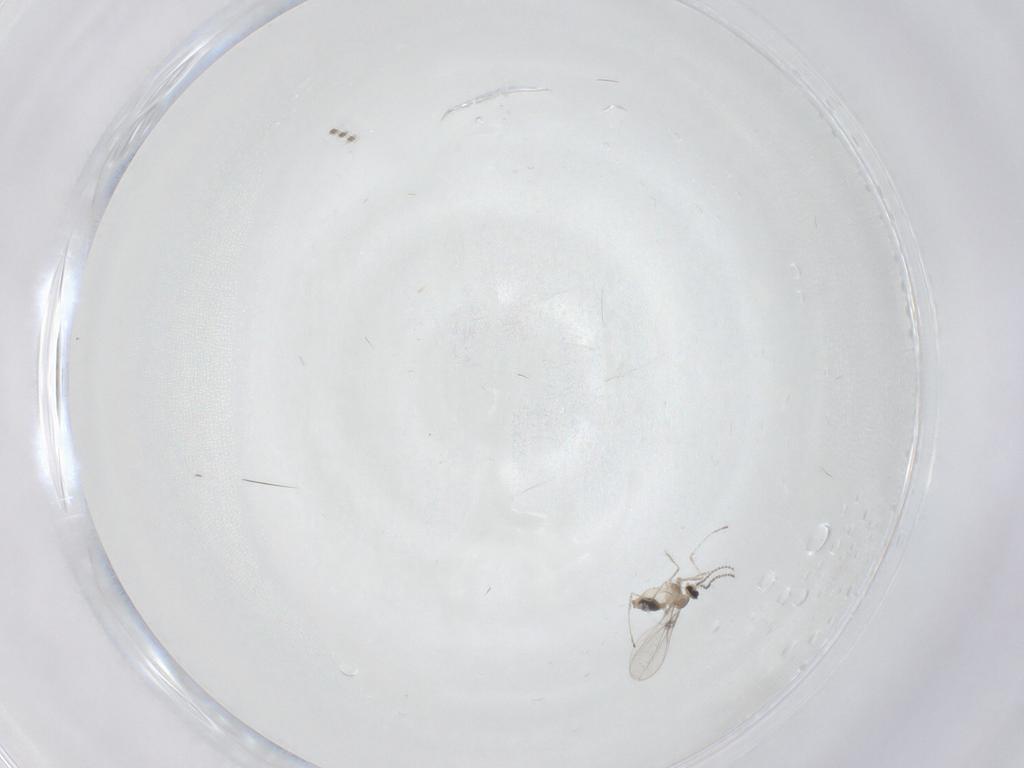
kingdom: Animalia
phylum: Arthropoda
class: Insecta
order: Diptera
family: Cecidomyiidae
